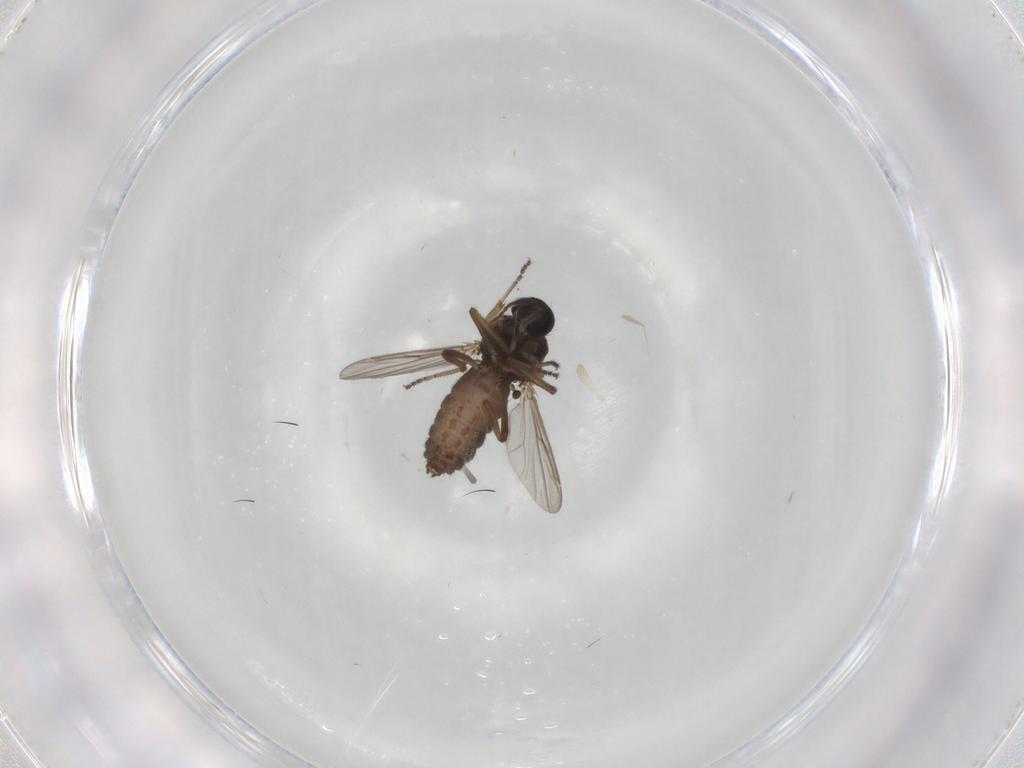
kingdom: Animalia
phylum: Arthropoda
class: Insecta
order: Diptera
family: Ceratopogonidae
